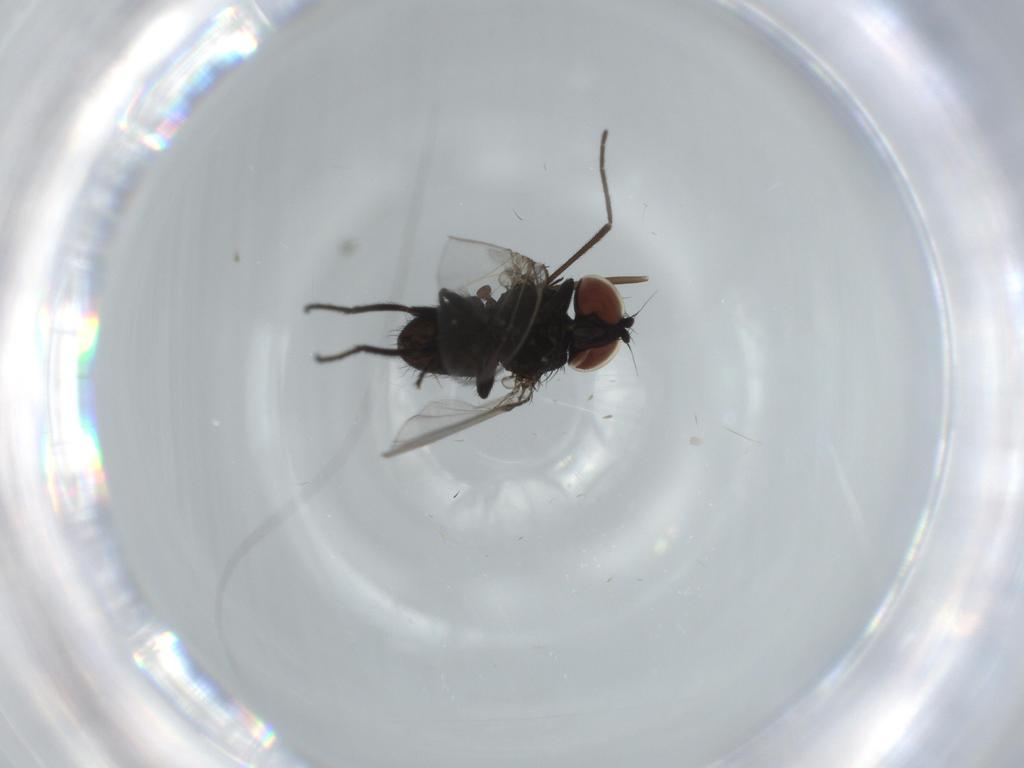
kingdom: Animalia
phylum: Arthropoda
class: Insecta
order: Diptera
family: Milichiidae
